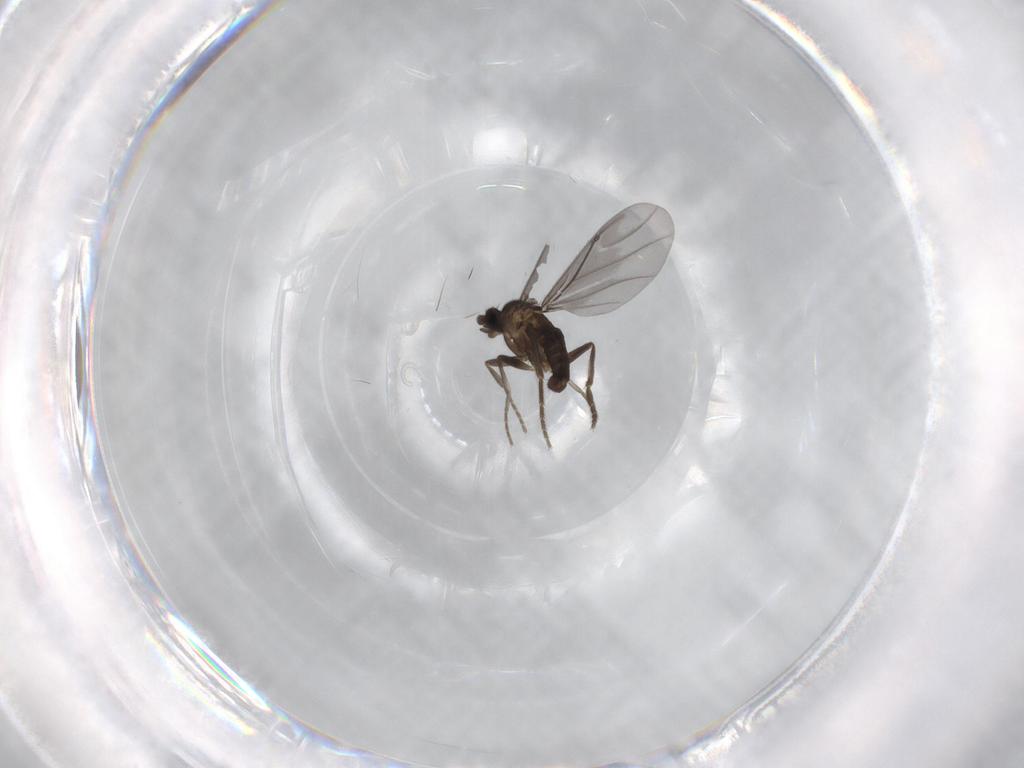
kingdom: Animalia
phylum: Arthropoda
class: Insecta
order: Diptera
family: Phoridae
